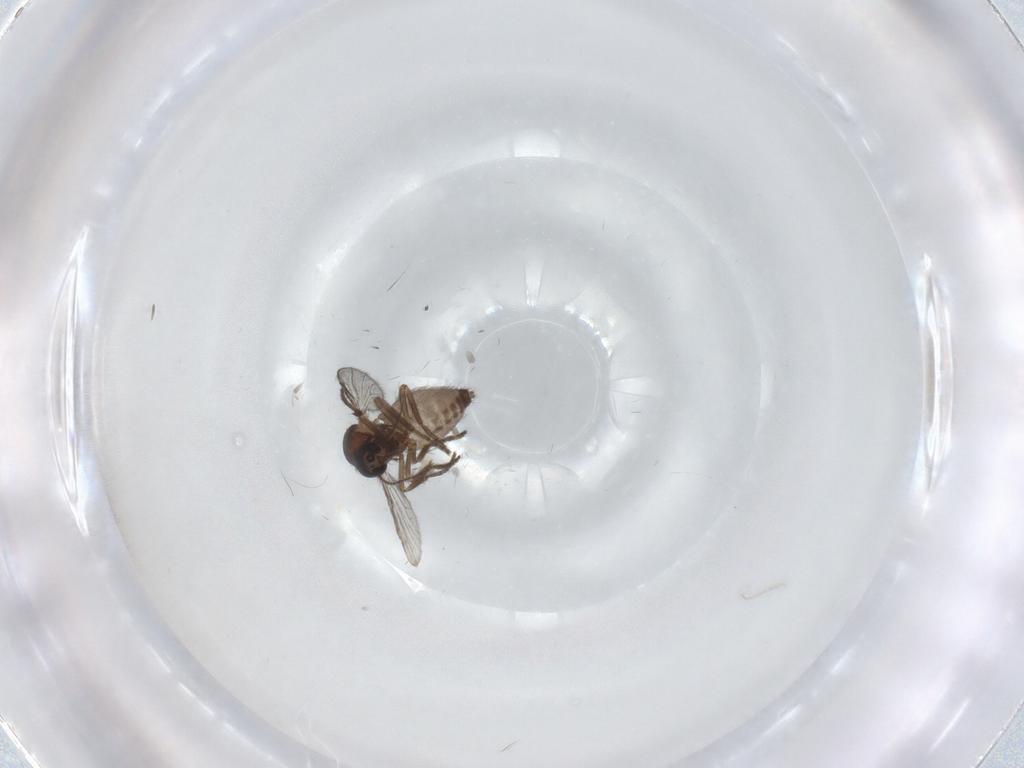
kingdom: Animalia
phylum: Arthropoda
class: Insecta
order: Diptera
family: Chironomidae
